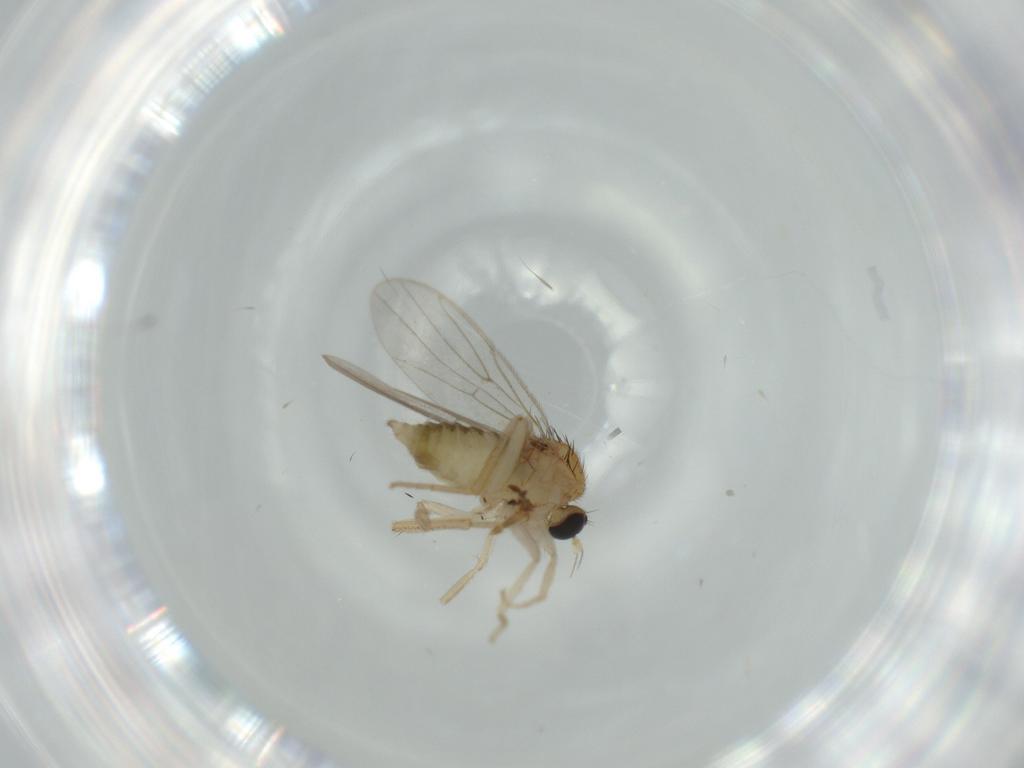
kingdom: Animalia
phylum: Arthropoda
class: Insecta
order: Diptera
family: Hybotidae
